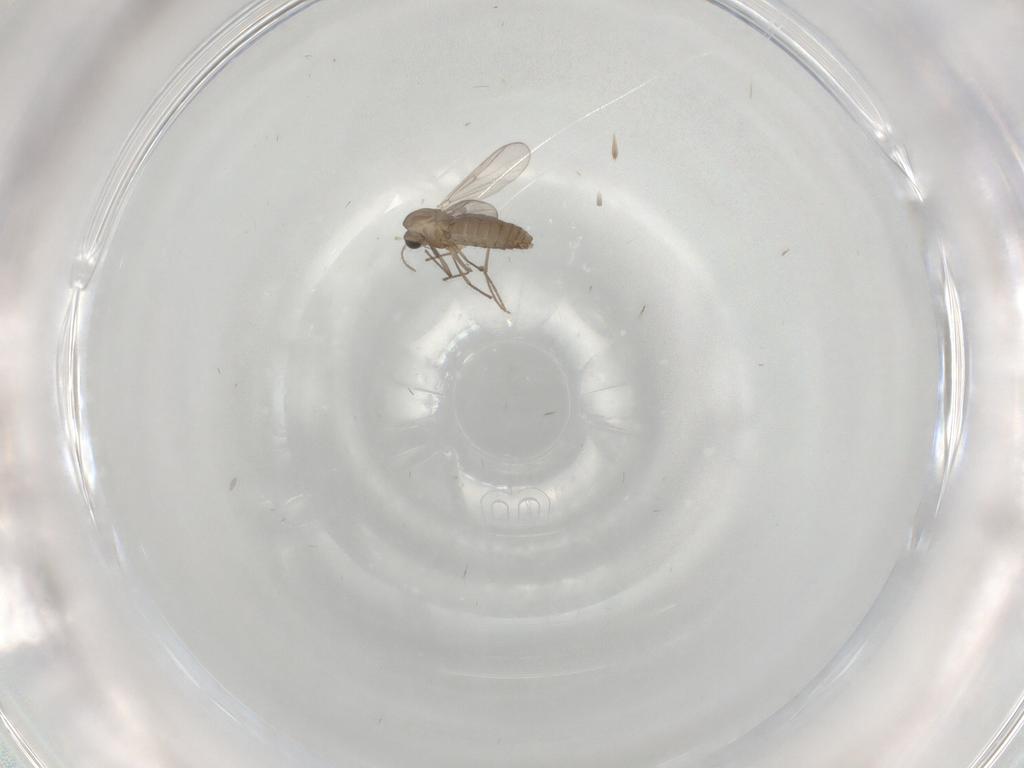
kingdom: Animalia
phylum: Arthropoda
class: Insecta
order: Diptera
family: Chironomidae
